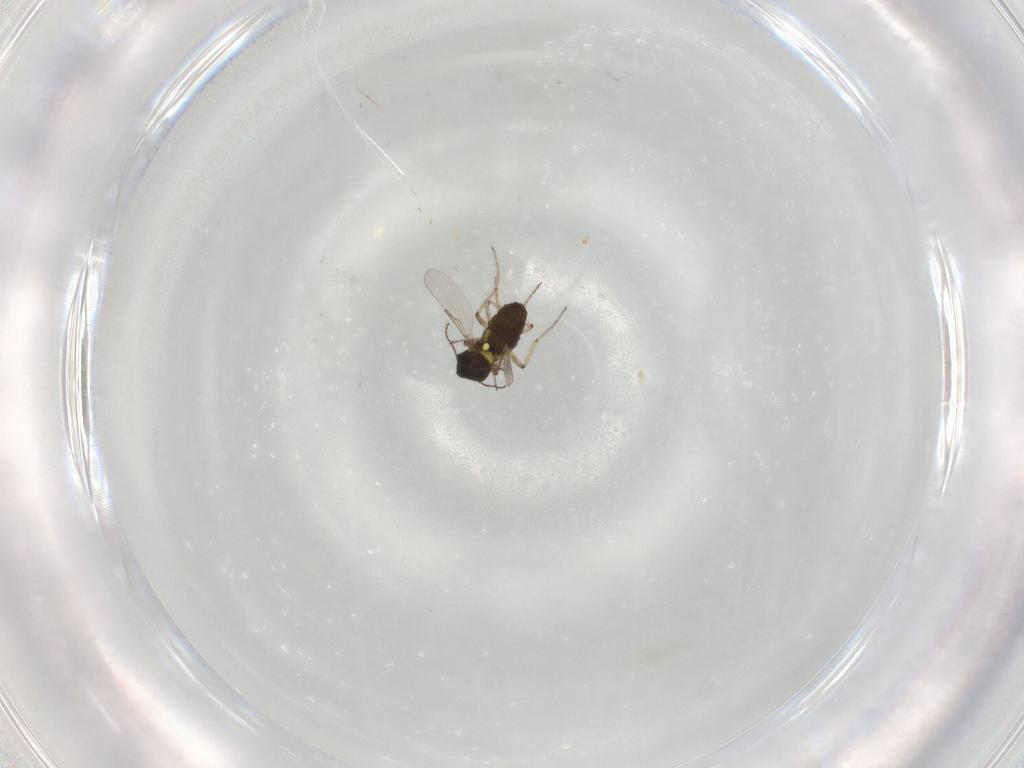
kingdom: Animalia
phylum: Arthropoda
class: Insecta
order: Diptera
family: Ceratopogonidae
